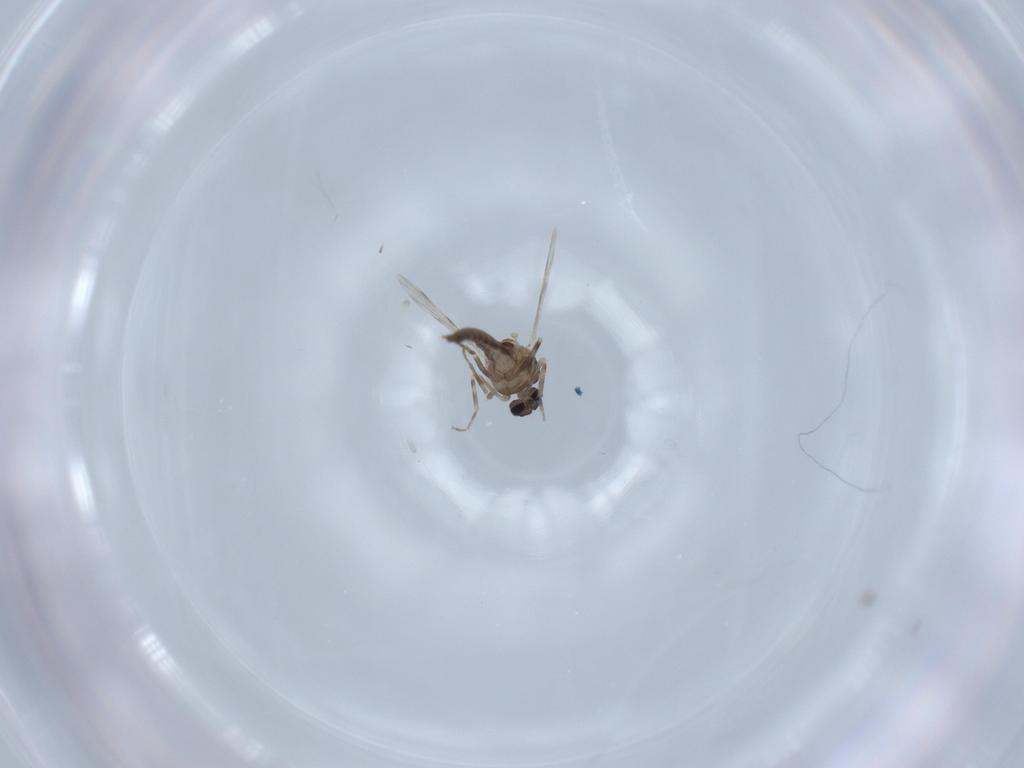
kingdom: Animalia
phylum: Arthropoda
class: Insecta
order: Diptera
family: Ceratopogonidae
